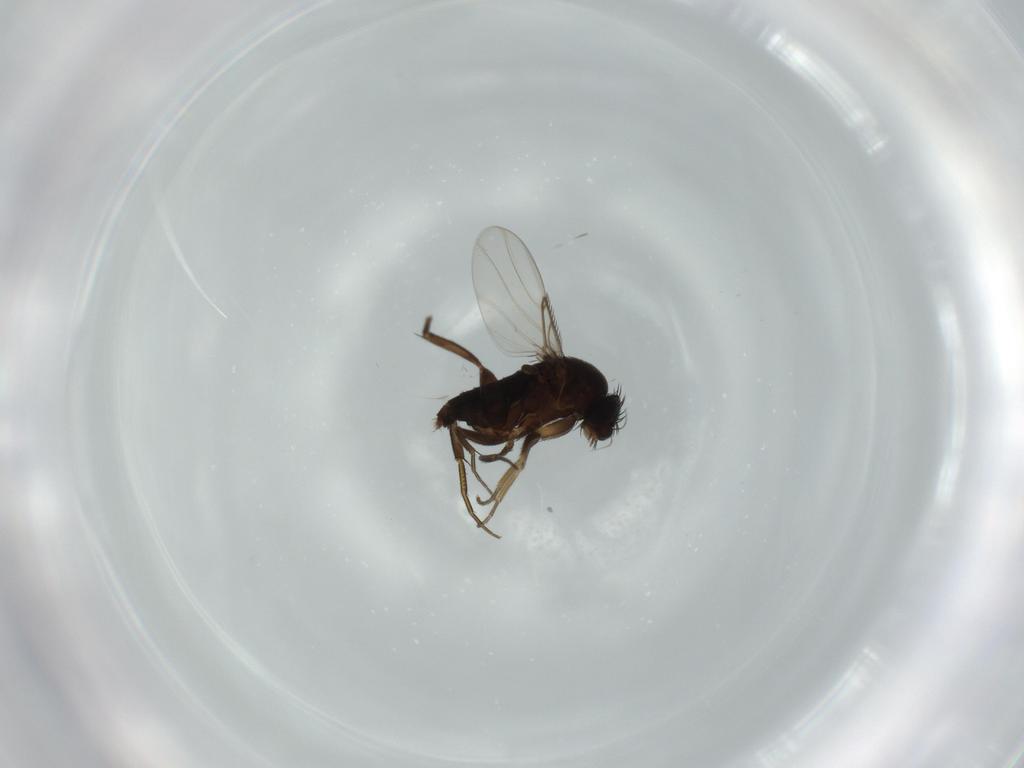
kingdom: Animalia
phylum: Arthropoda
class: Insecta
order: Diptera
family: Phoridae
